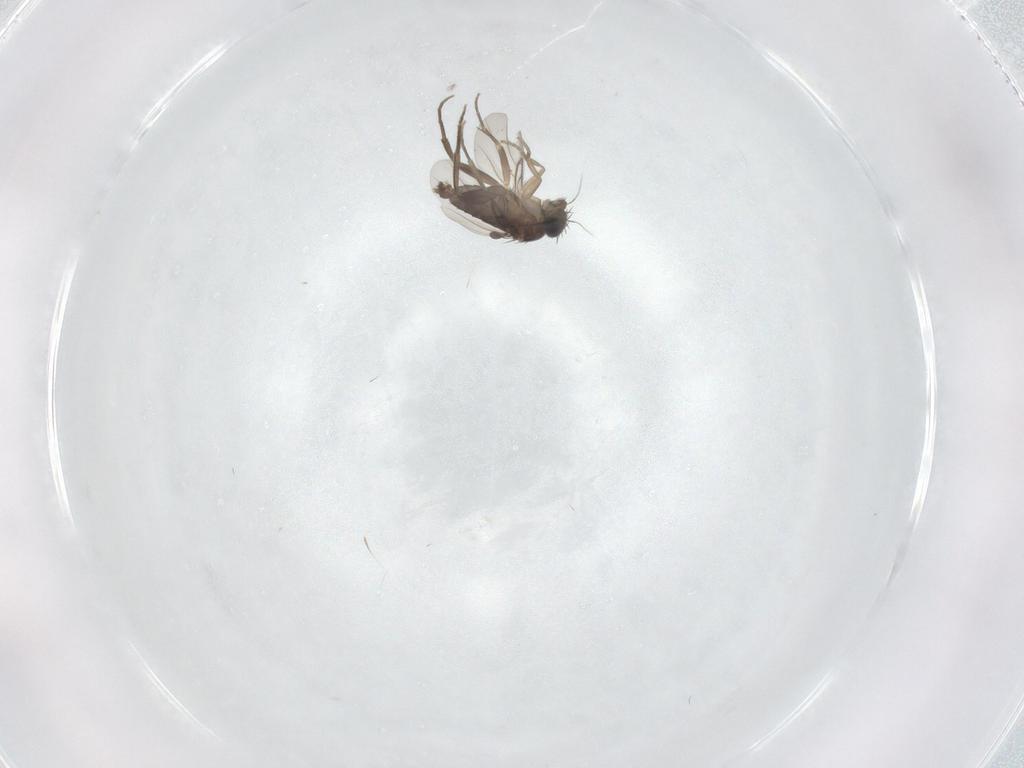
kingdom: Animalia
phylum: Arthropoda
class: Insecta
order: Diptera
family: Phoridae
